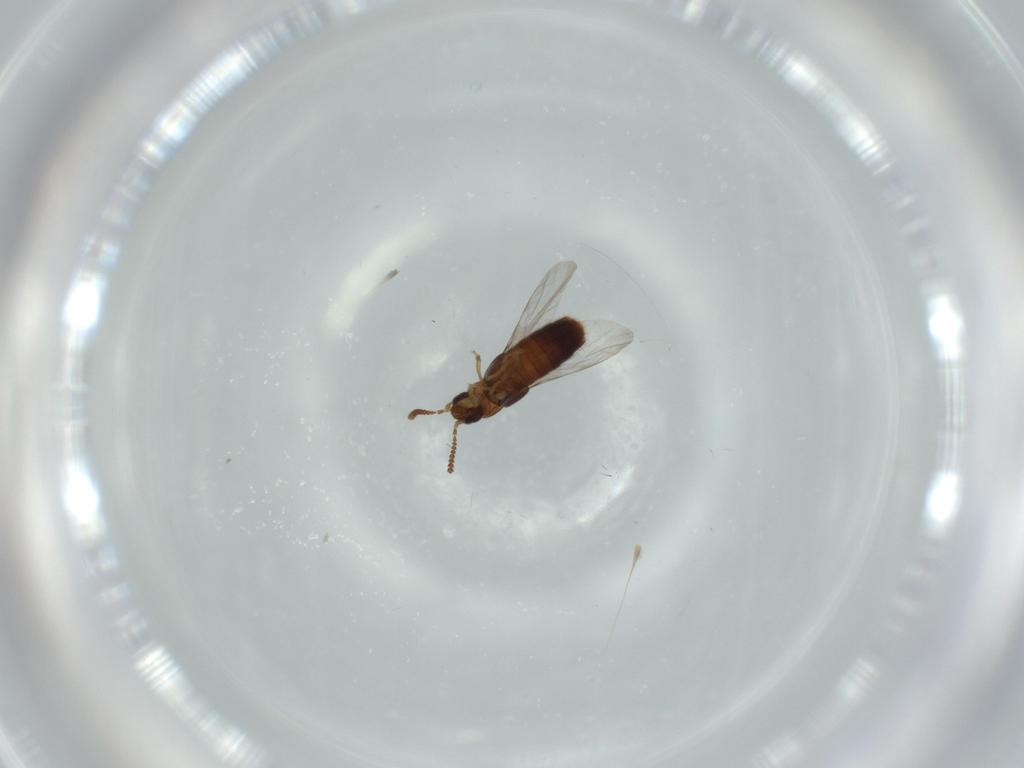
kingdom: Animalia
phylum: Arthropoda
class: Insecta
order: Coleoptera
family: Staphylinidae
